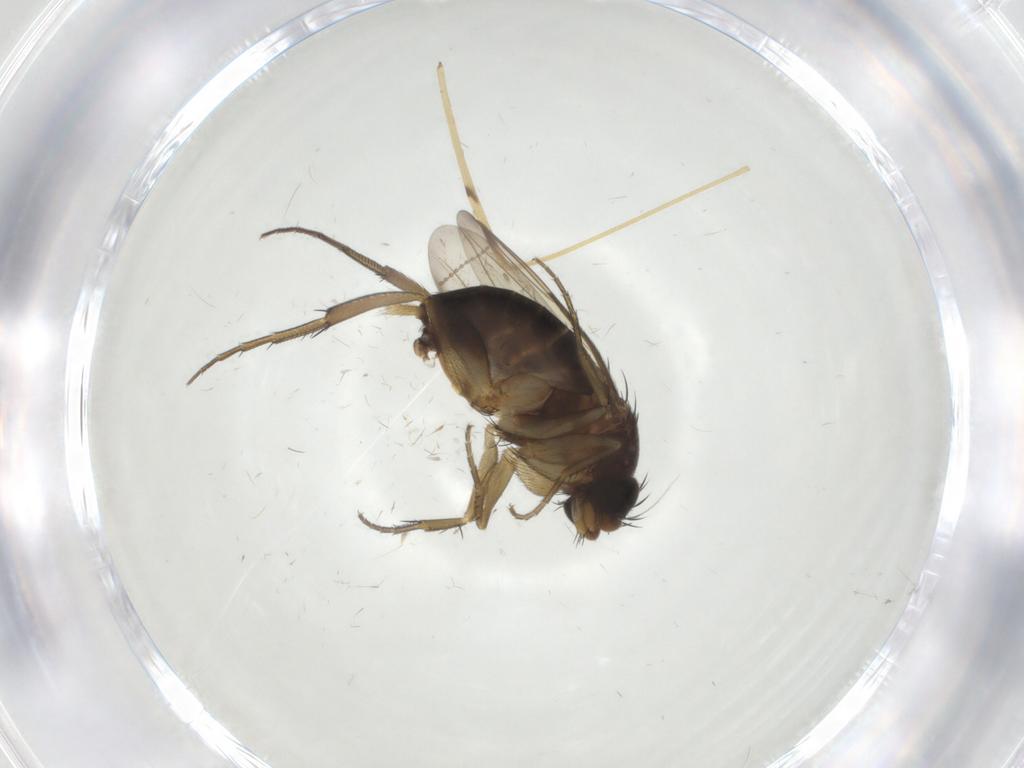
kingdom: Animalia
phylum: Arthropoda
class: Insecta
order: Diptera
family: Limoniidae
